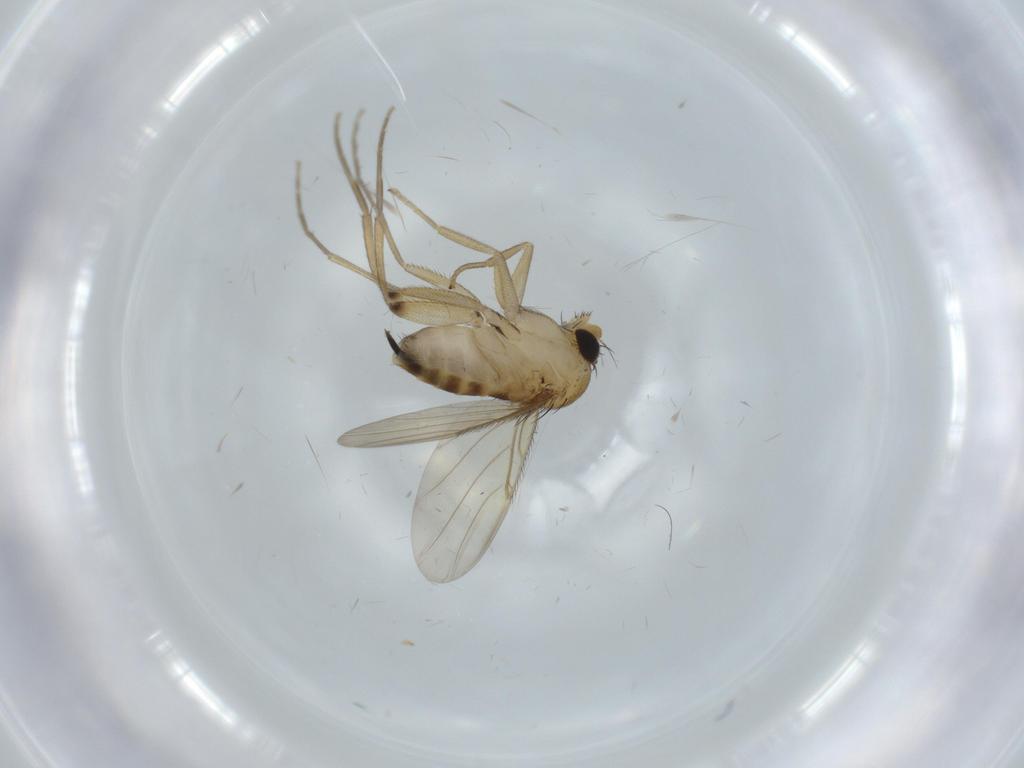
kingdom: Animalia
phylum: Arthropoda
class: Insecta
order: Diptera
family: Phoridae
